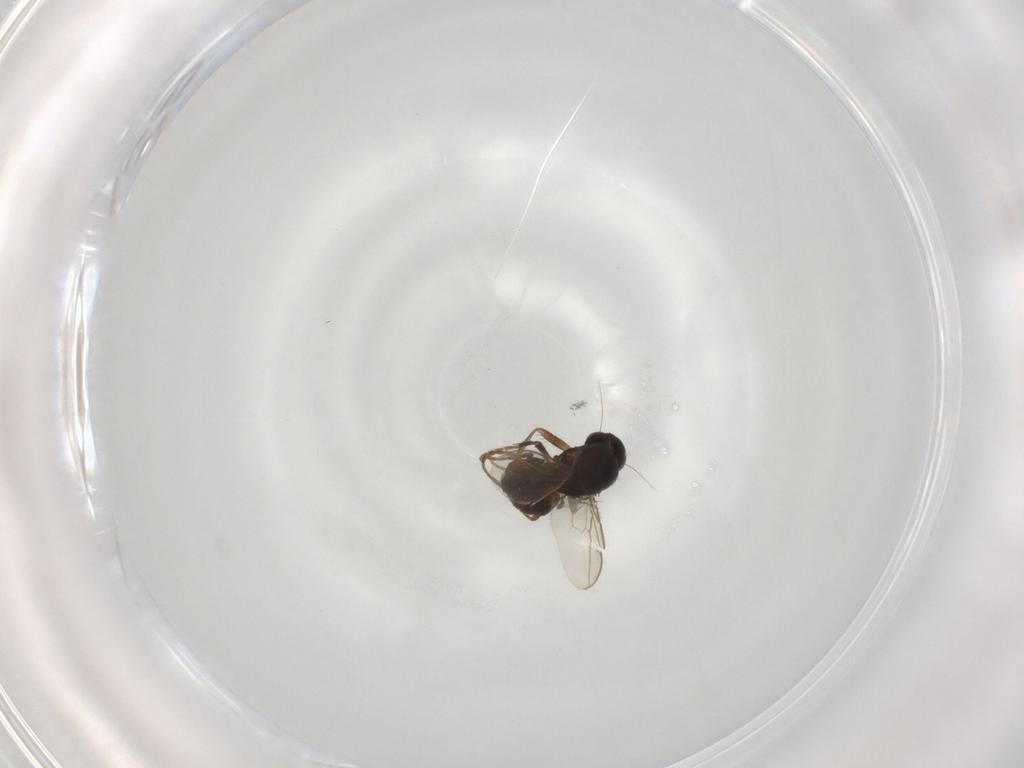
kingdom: Animalia
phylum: Arthropoda
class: Insecta
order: Diptera
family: Sphaeroceridae
